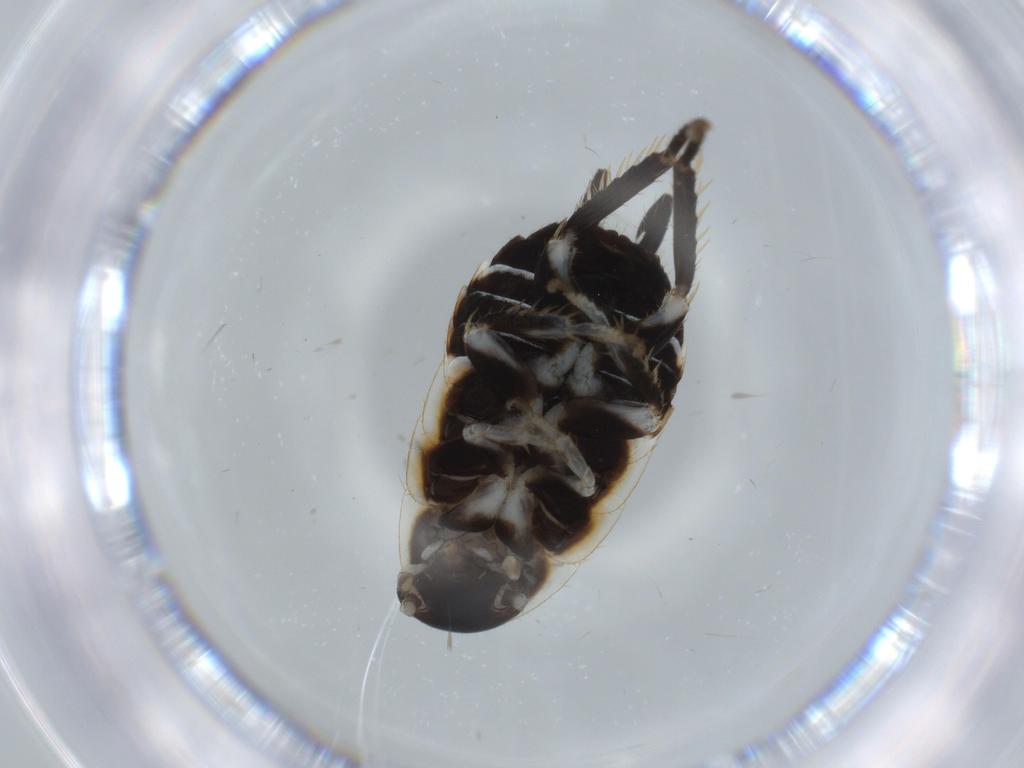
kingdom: Animalia
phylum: Arthropoda
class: Insecta
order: Blattodea
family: Ectobiidae
